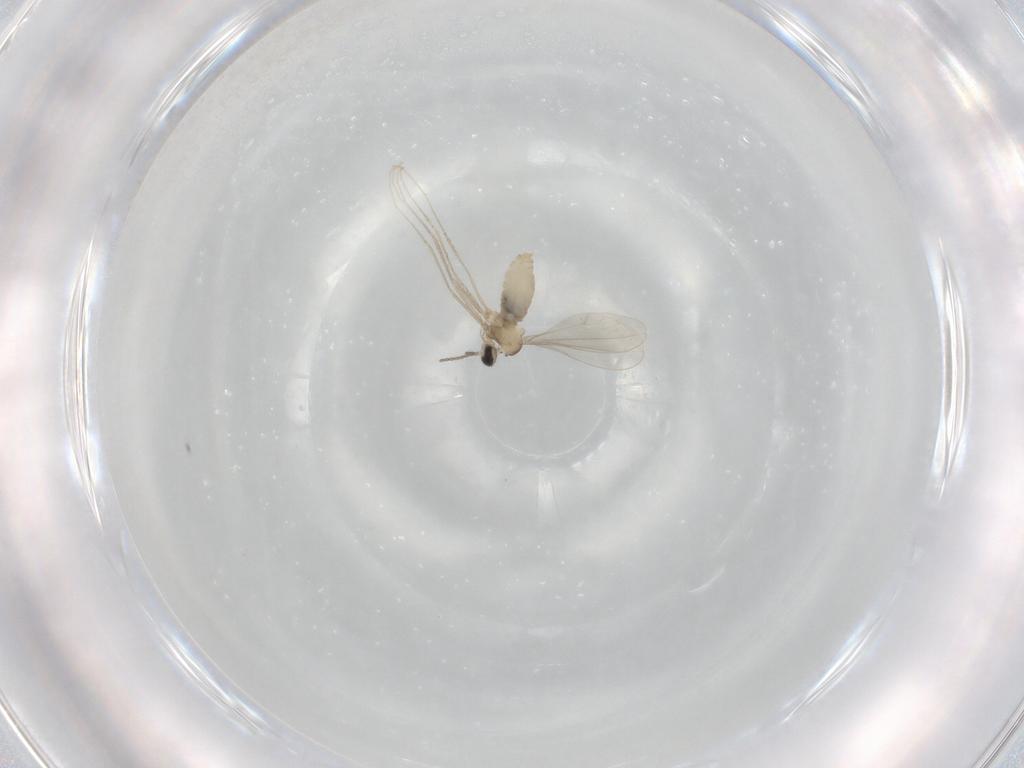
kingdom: Animalia
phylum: Arthropoda
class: Insecta
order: Diptera
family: Cecidomyiidae
